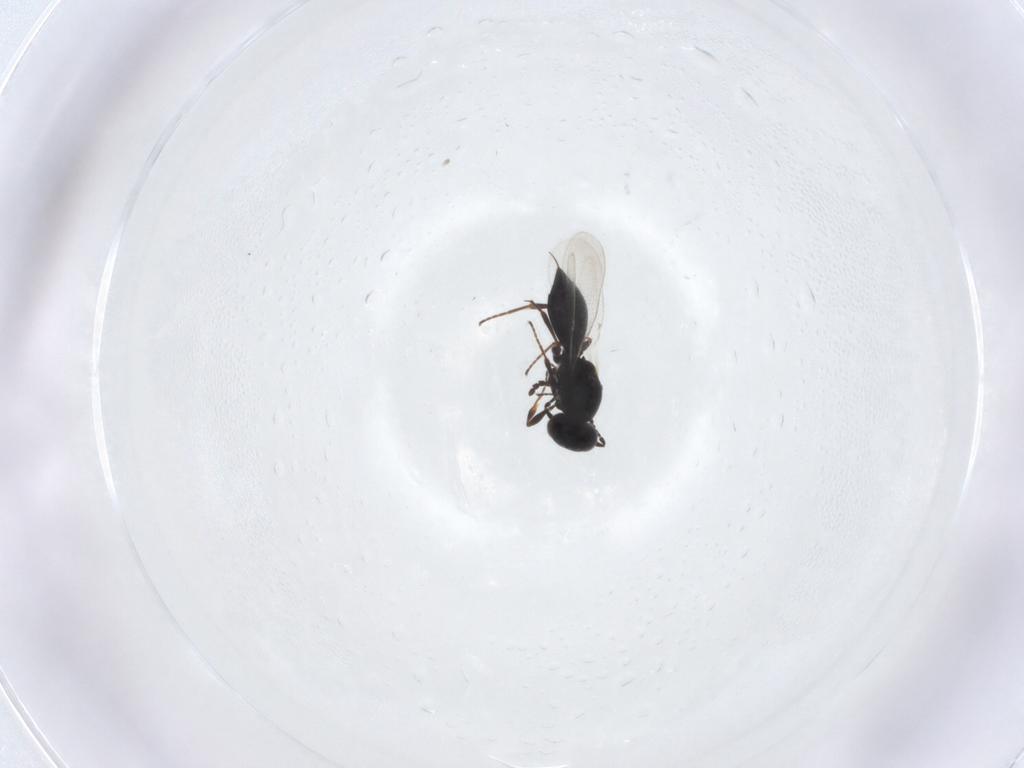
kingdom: Animalia
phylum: Arthropoda
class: Insecta
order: Hymenoptera
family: Platygastridae
